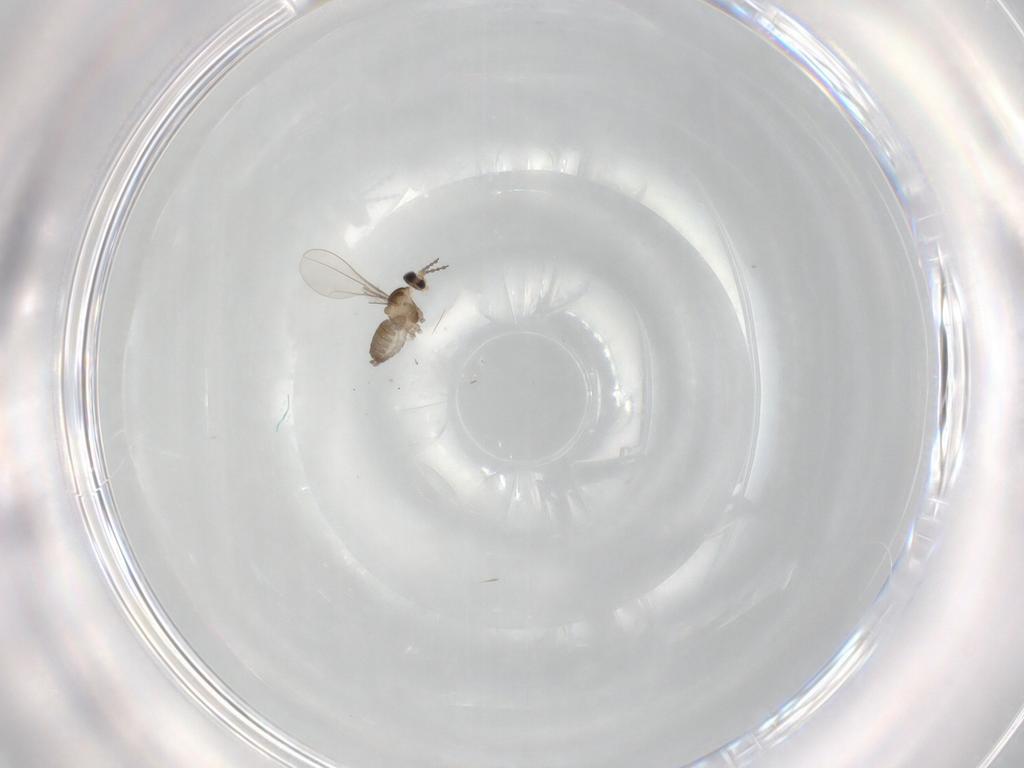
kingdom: Animalia
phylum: Arthropoda
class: Insecta
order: Diptera
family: Cecidomyiidae
